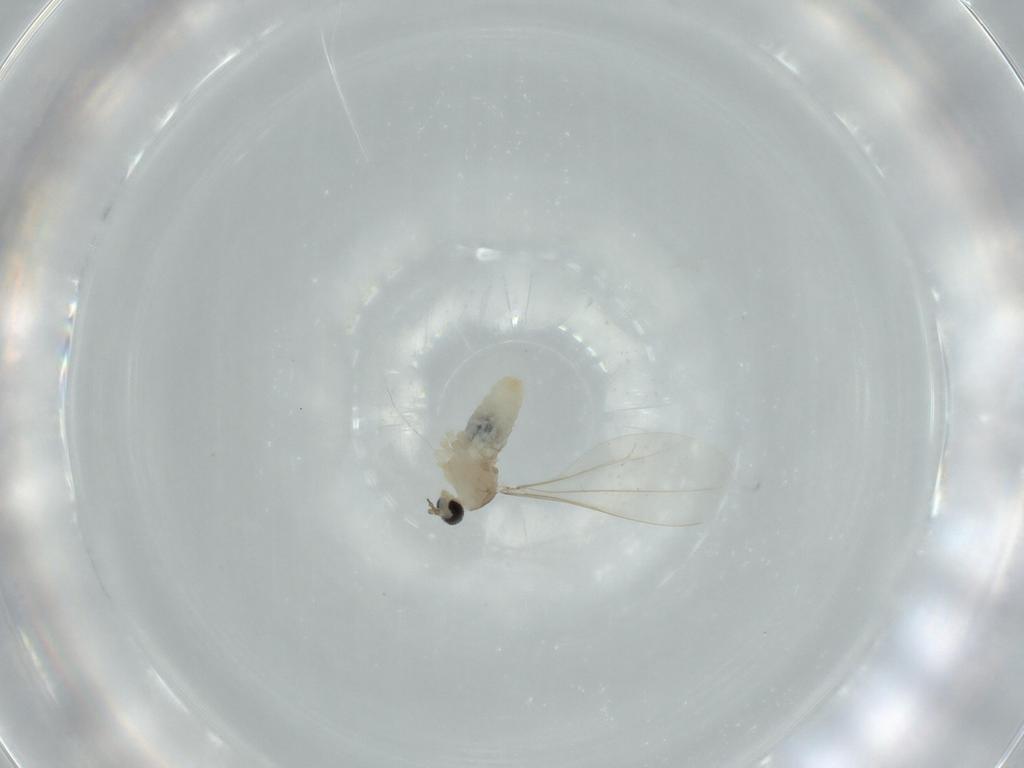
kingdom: Animalia
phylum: Arthropoda
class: Insecta
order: Diptera
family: Cecidomyiidae
